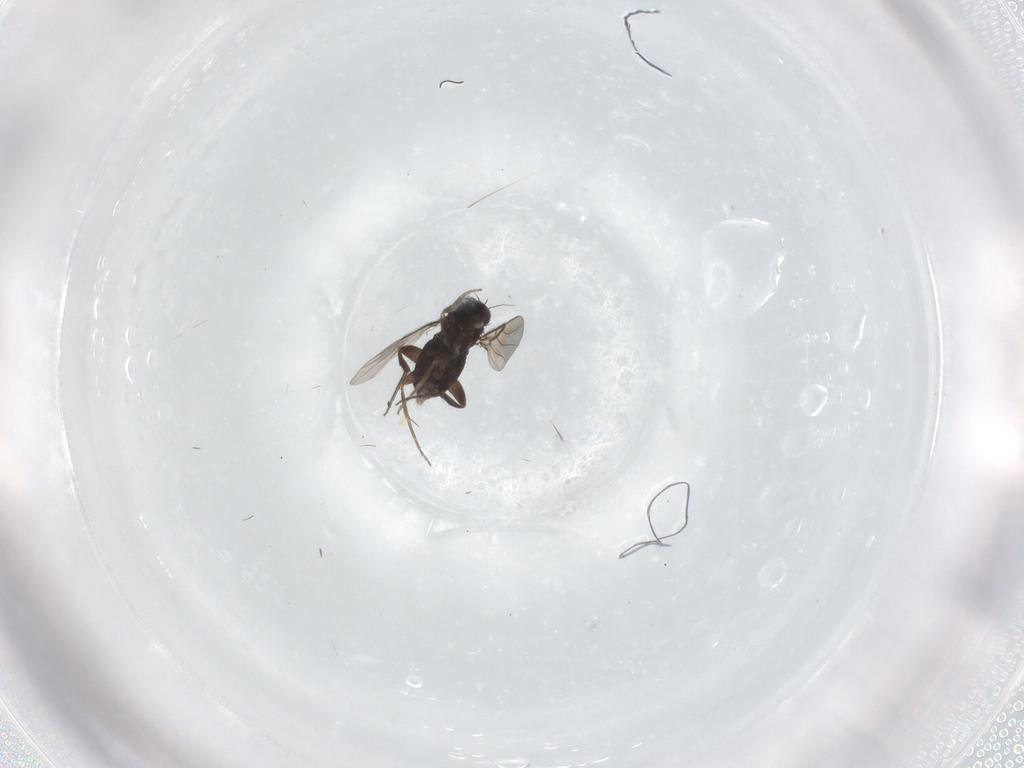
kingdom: Animalia
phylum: Arthropoda
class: Insecta
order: Diptera
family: Phoridae
